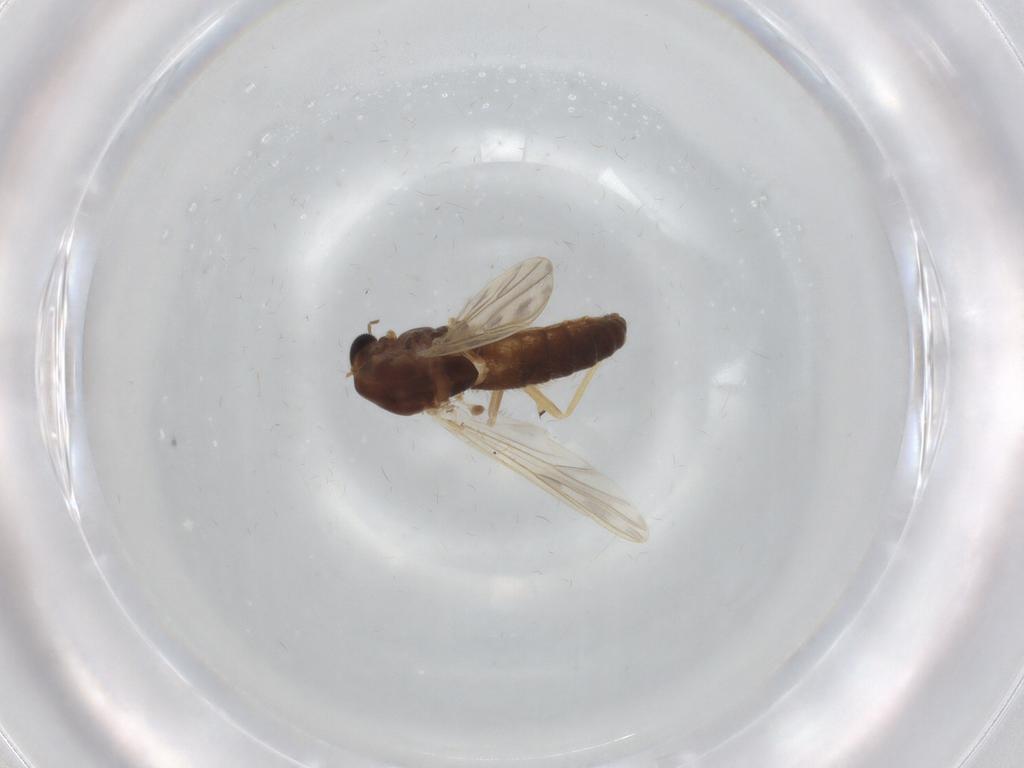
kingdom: Animalia
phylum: Arthropoda
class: Insecta
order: Diptera
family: Chironomidae
